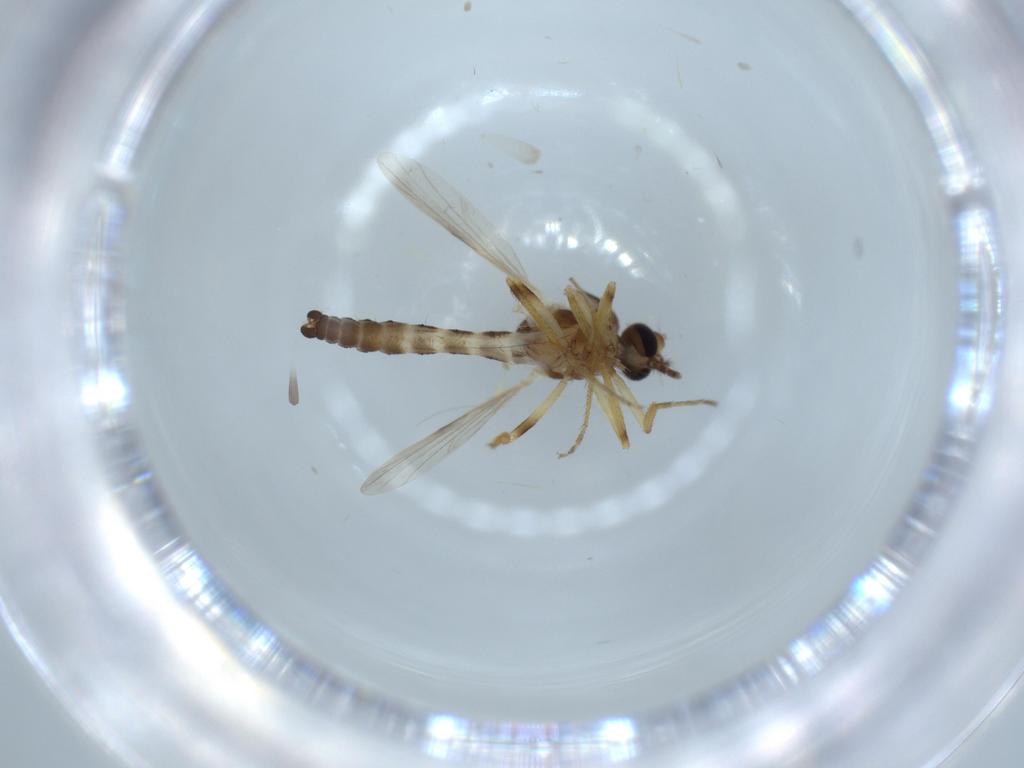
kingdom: Animalia
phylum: Arthropoda
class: Insecta
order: Diptera
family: Ceratopogonidae
